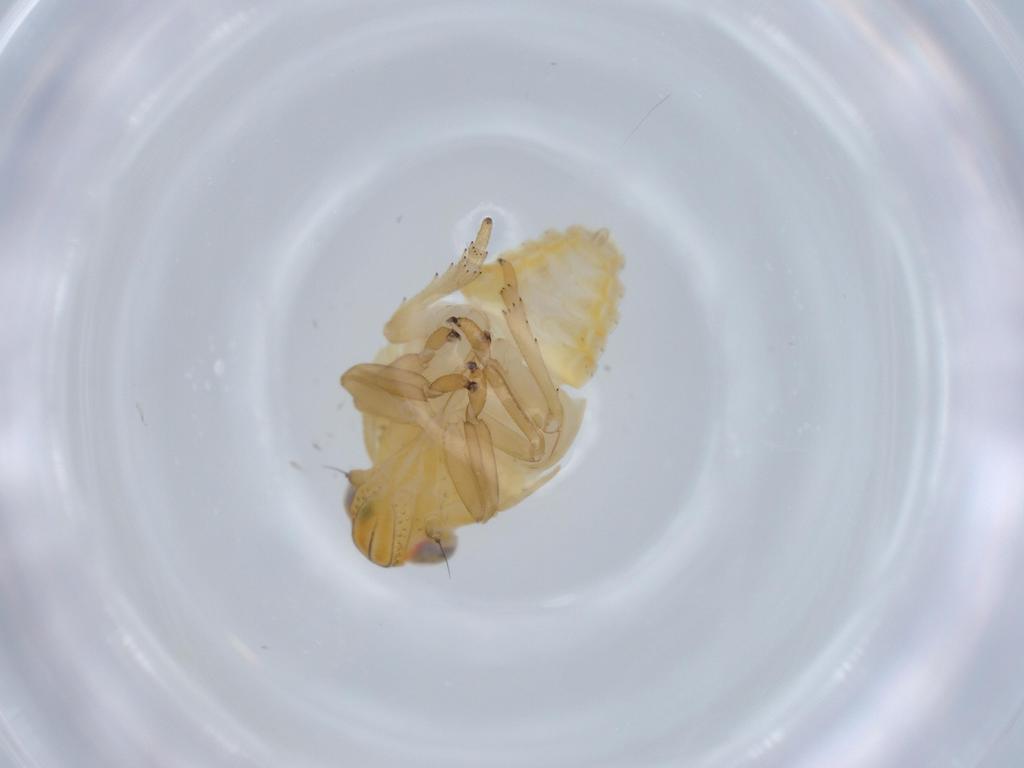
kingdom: Animalia
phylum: Arthropoda
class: Insecta
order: Hemiptera
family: Issidae
